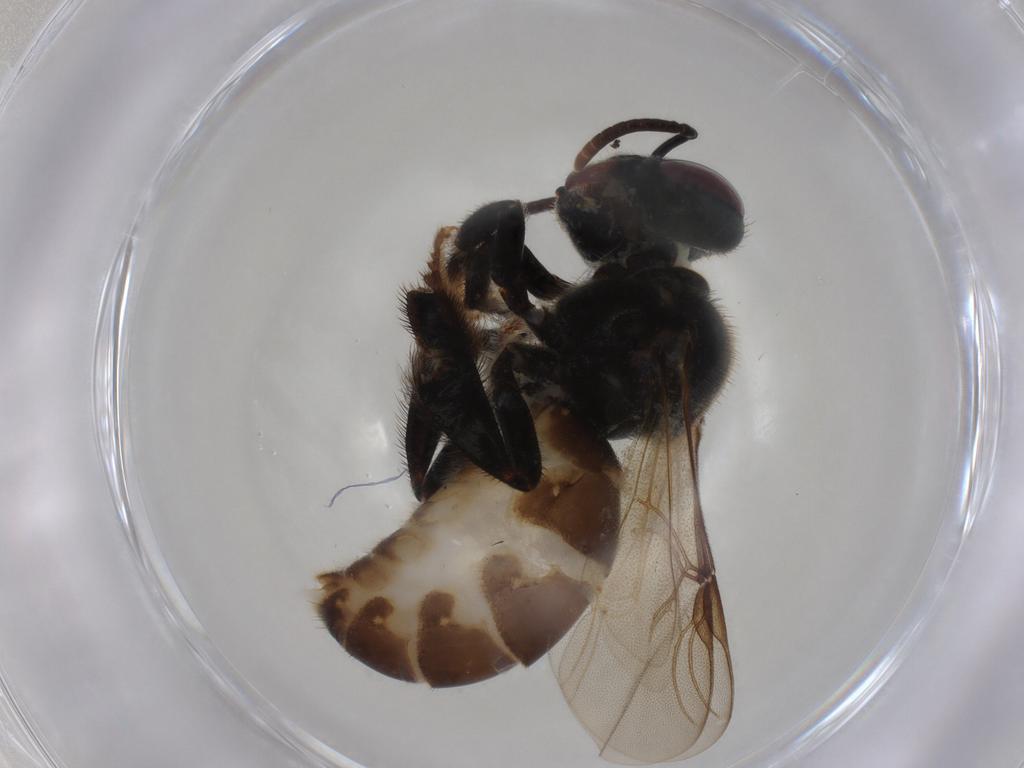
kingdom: Animalia
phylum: Arthropoda
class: Insecta
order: Hymenoptera
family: Apidae
